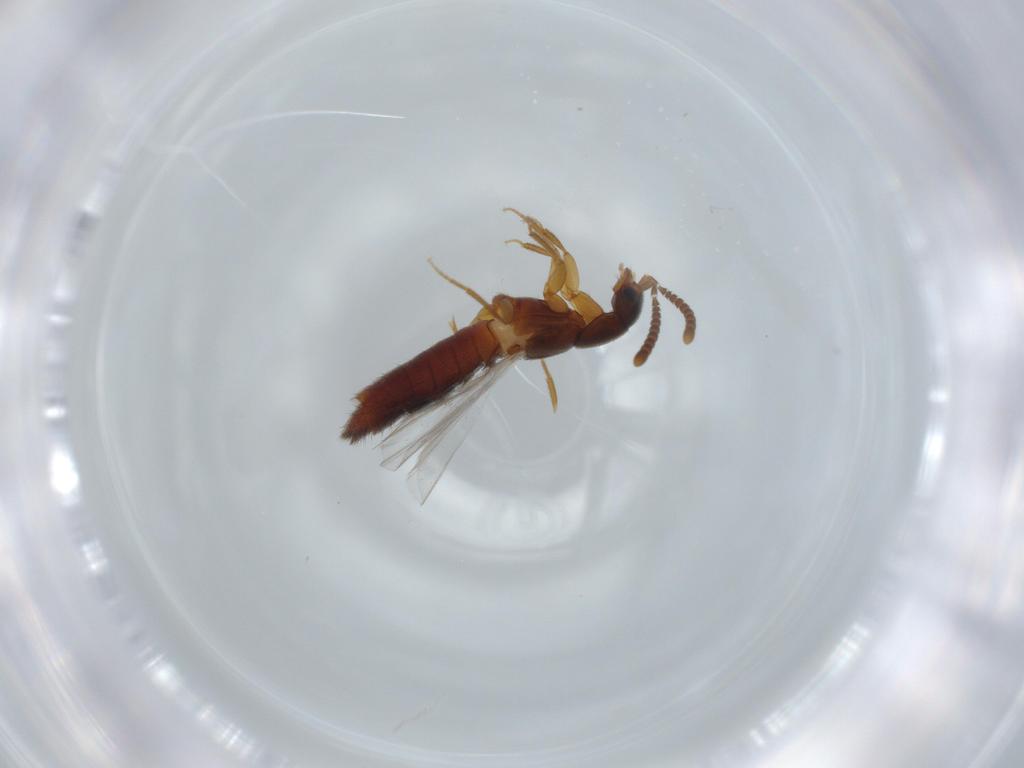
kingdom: Animalia
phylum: Arthropoda
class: Insecta
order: Coleoptera
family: Staphylinidae
